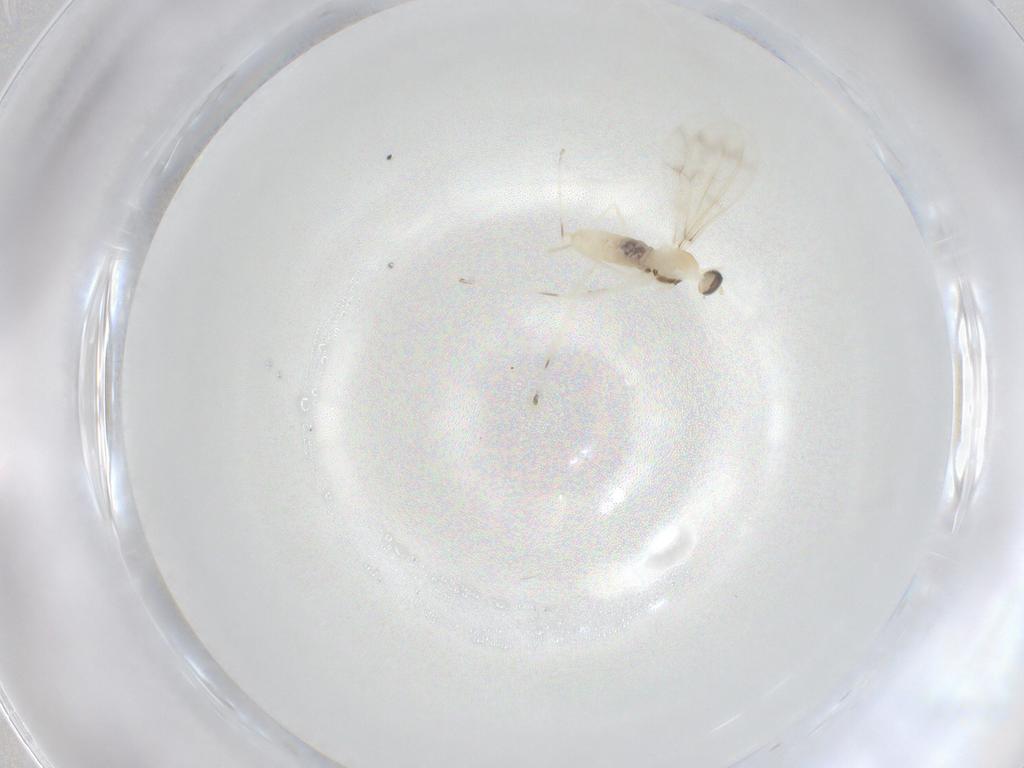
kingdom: Animalia
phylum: Arthropoda
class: Insecta
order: Diptera
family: Cecidomyiidae
